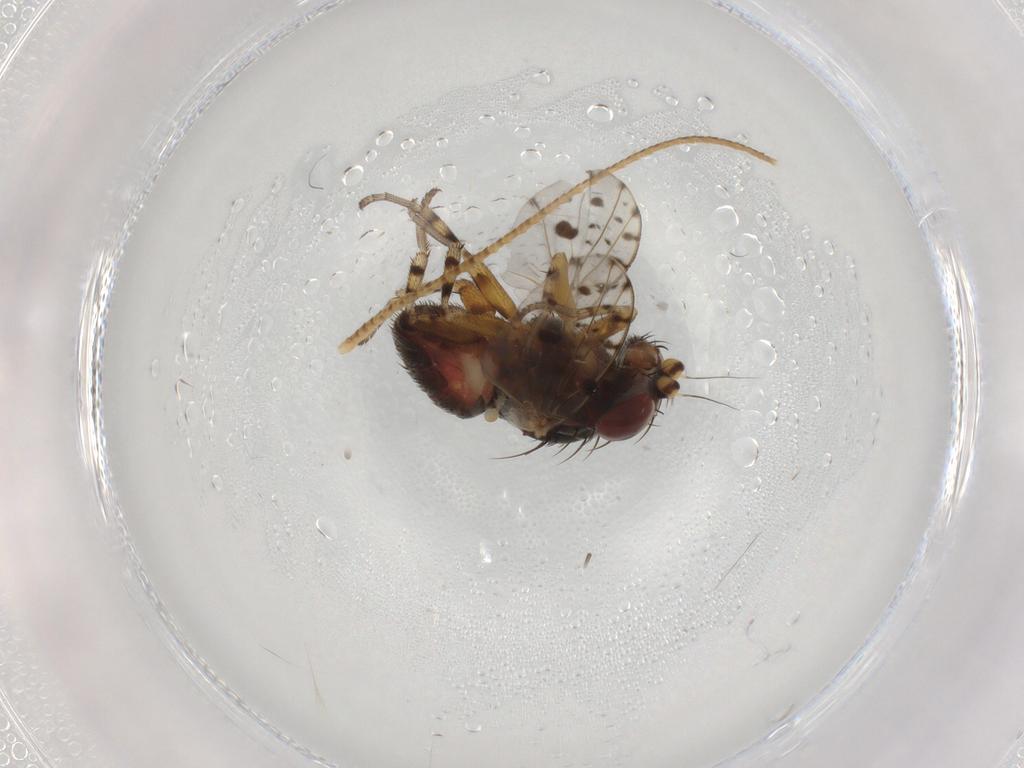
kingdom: Animalia
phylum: Arthropoda
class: Insecta
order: Diptera
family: Odiniidae
